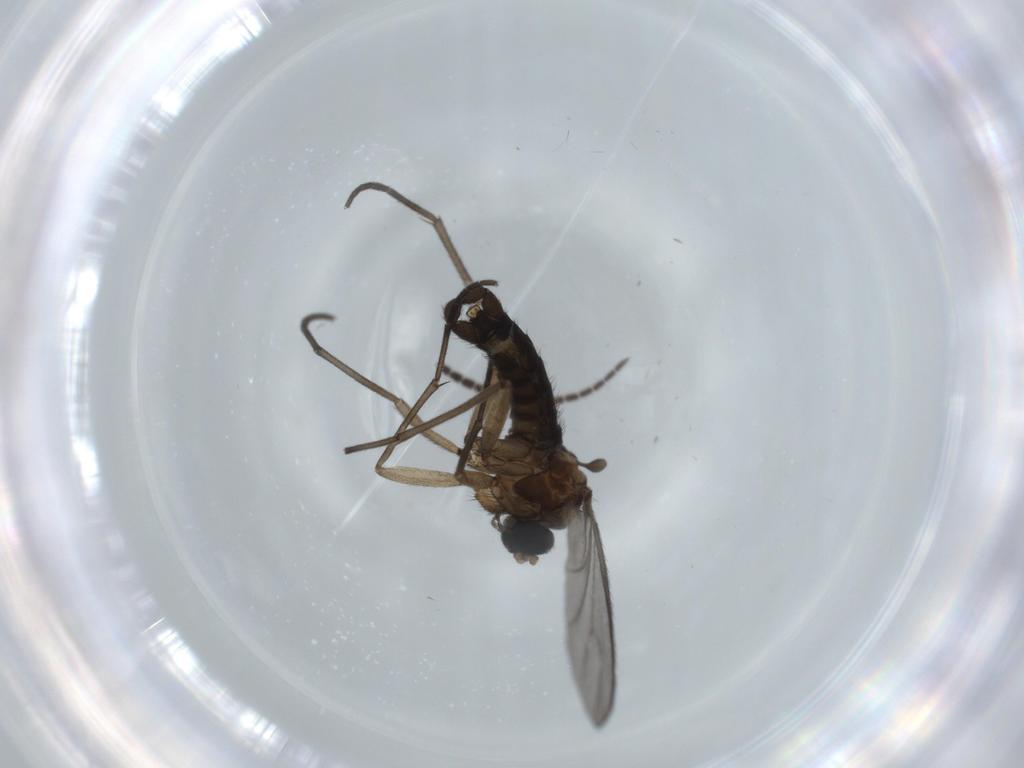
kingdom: Animalia
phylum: Arthropoda
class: Insecta
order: Diptera
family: Sciaridae
